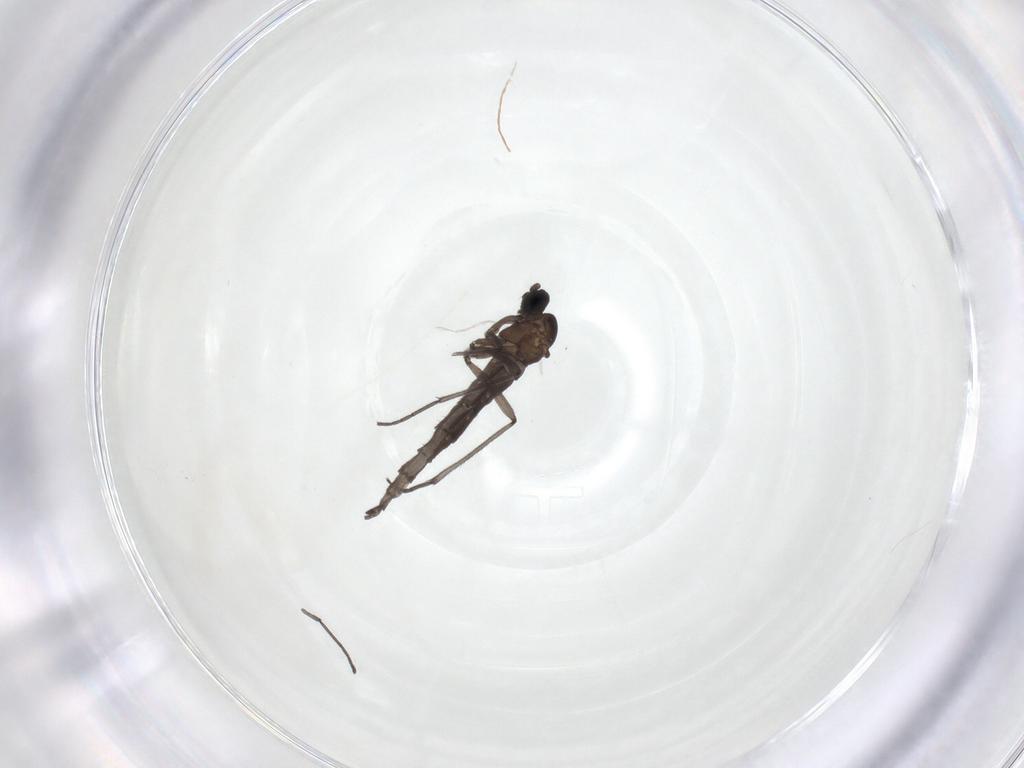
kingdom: Animalia
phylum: Arthropoda
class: Insecta
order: Diptera
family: Sciaridae
